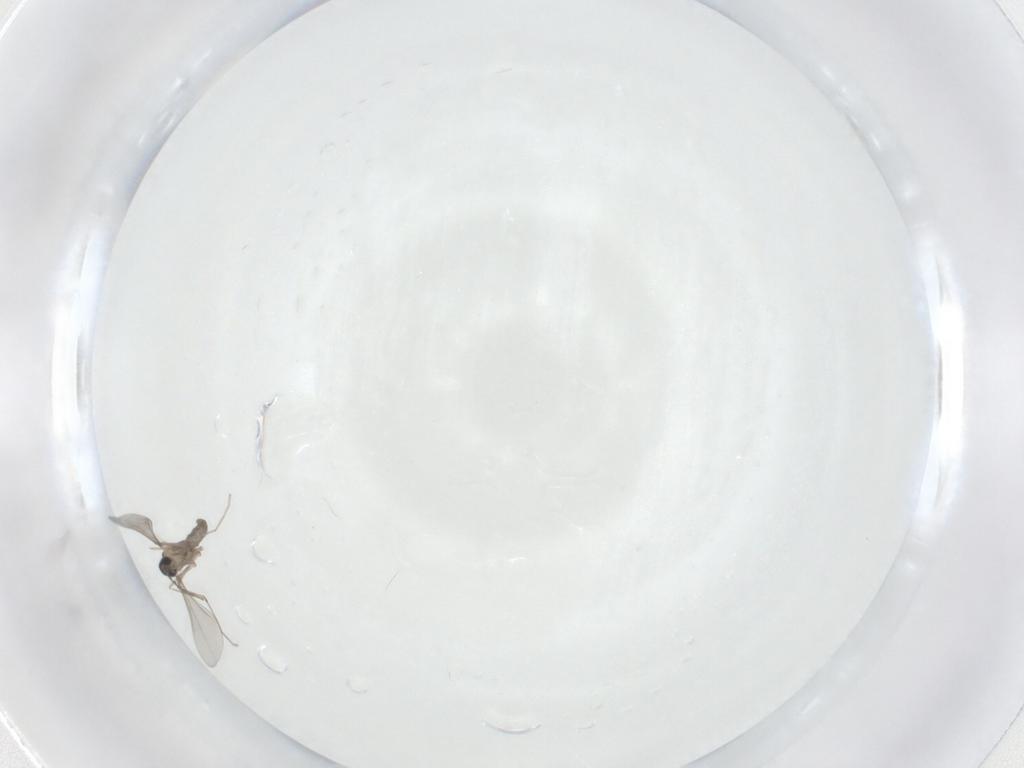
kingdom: Animalia
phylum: Arthropoda
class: Insecta
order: Diptera
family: Cecidomyiidae
